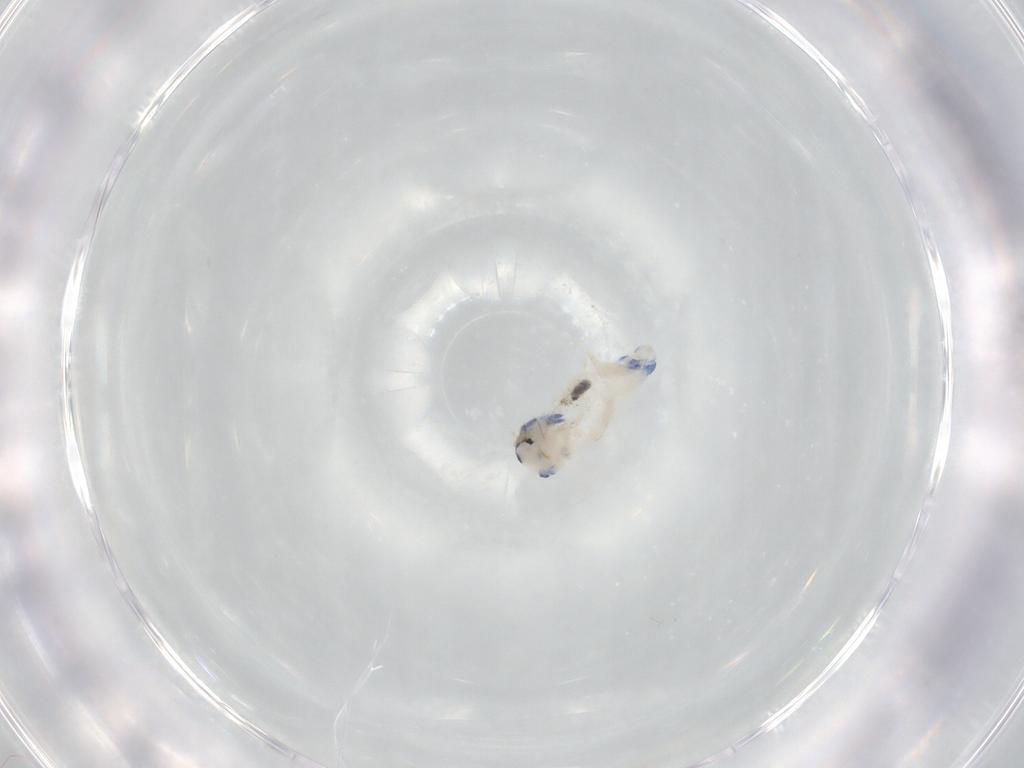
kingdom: Animalia
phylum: Arthropoda
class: Collembola
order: Entomobryomorpha
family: Entomobryidae
